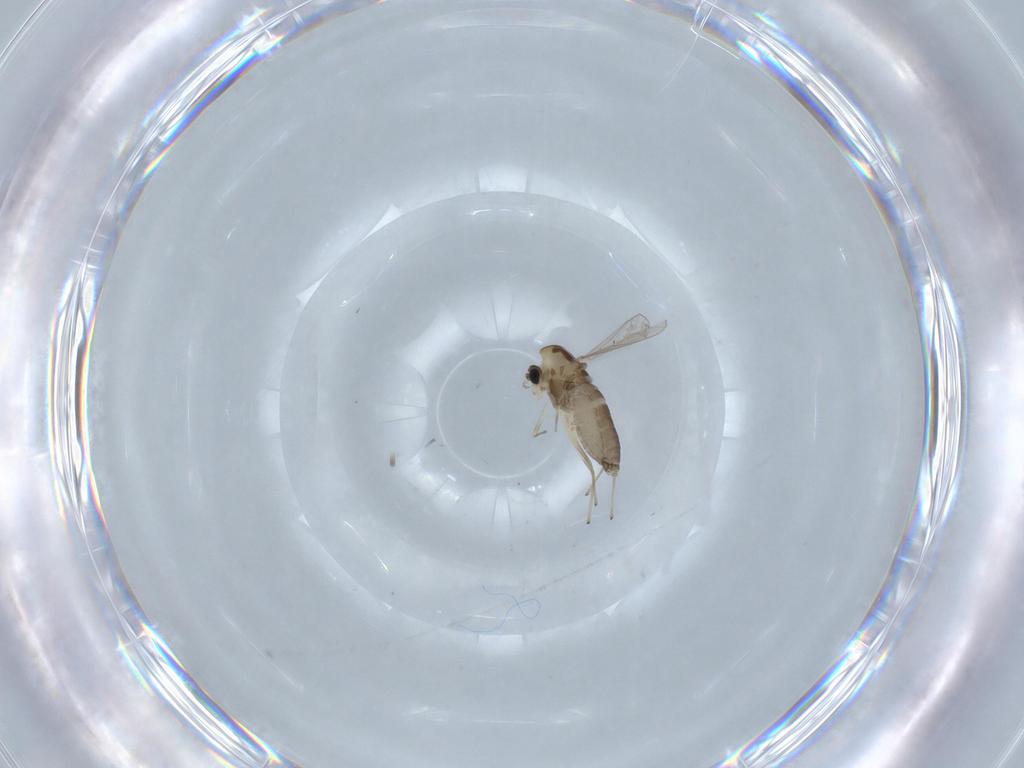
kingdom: Animalia
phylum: Arthropoda
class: Insecta
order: Diptera
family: Chironomidae
